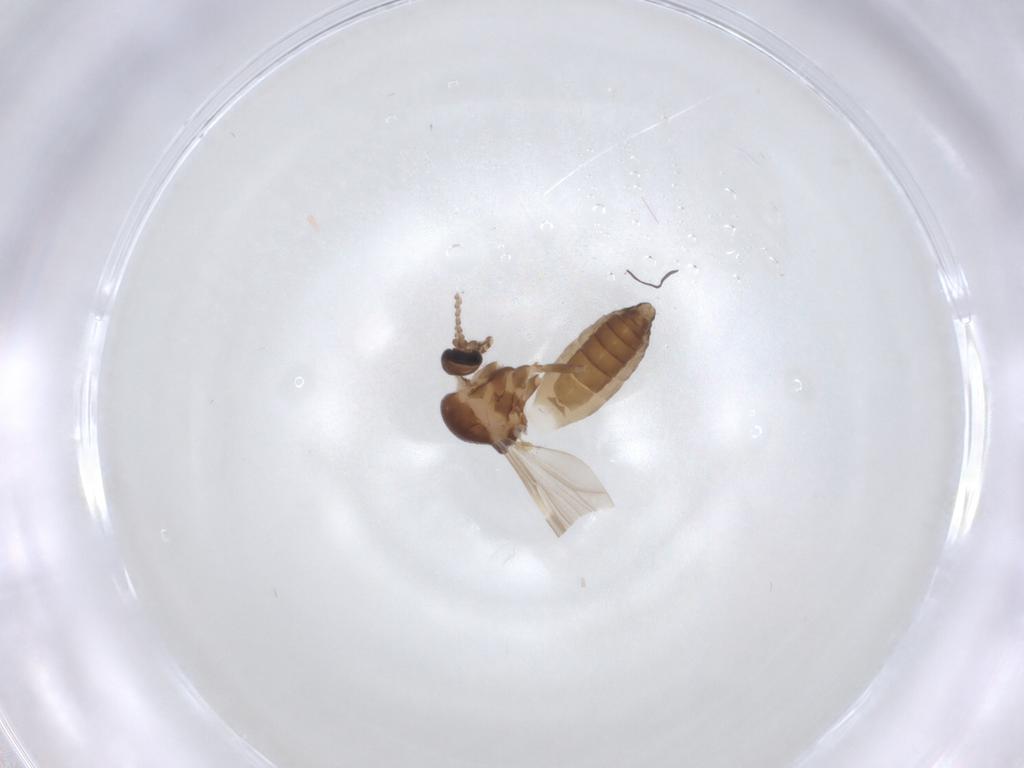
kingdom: Animalia
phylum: Arthropoda
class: Insecta
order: Diptera
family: Ceratopogonidae
